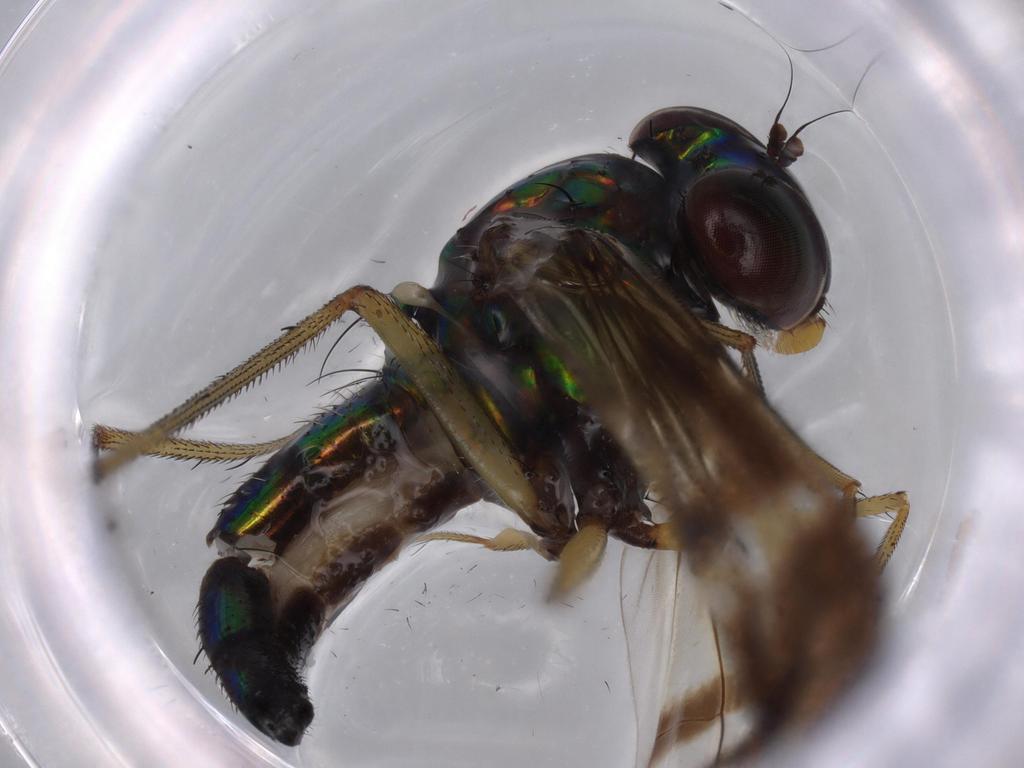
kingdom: Animalia
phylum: Arthropoda
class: Insecta
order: Diptera
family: Dolichopodidae
